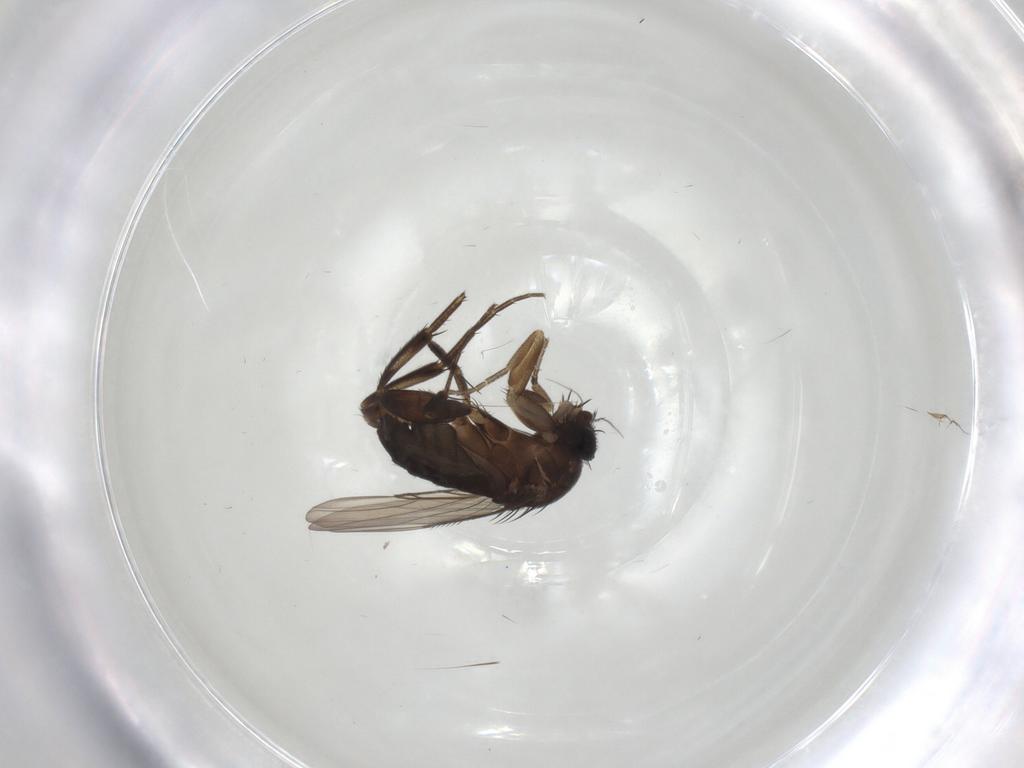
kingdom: Animalia
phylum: Arthropoda
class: Insecta
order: Diptera
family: Phoridae
